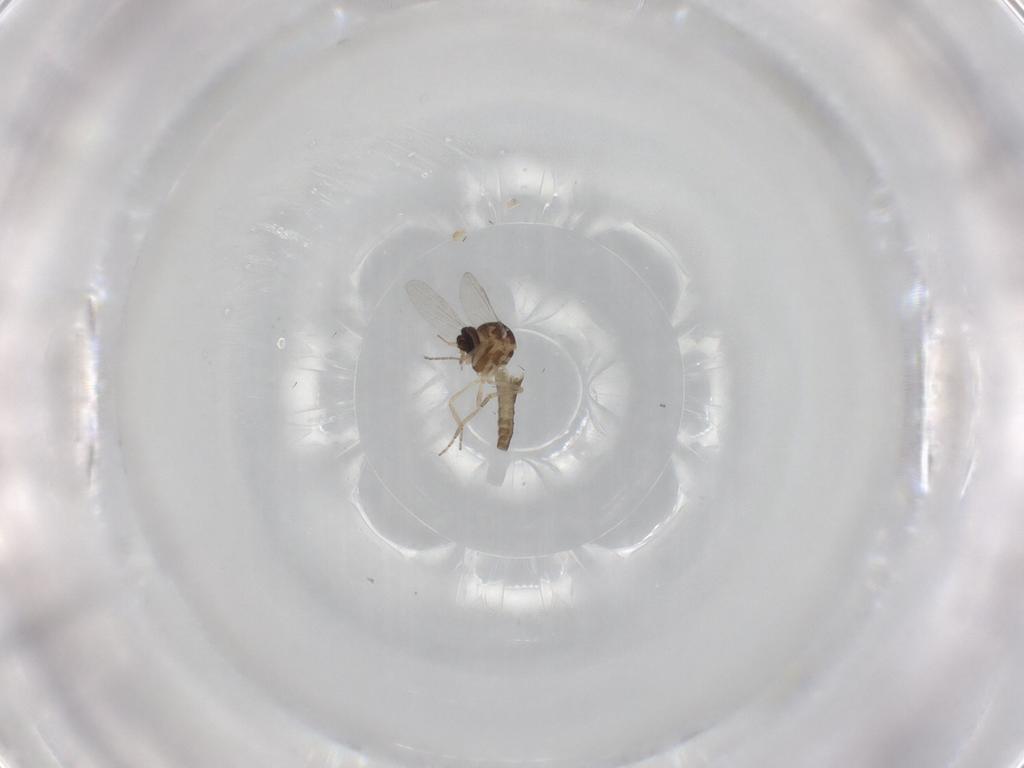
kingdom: Animalia
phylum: Arthropoda
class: Insecta
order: Diptera
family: Ceratopogonidae
